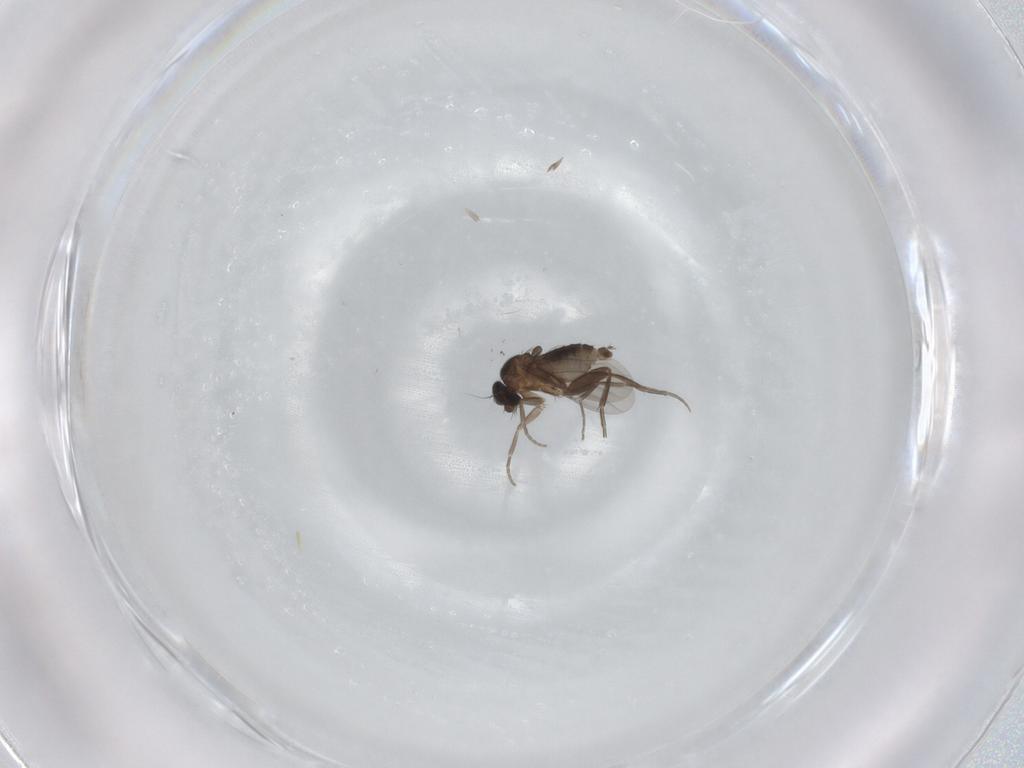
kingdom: Animalia
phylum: Arthropoda
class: Insecta
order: Diptera
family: Phoridae
